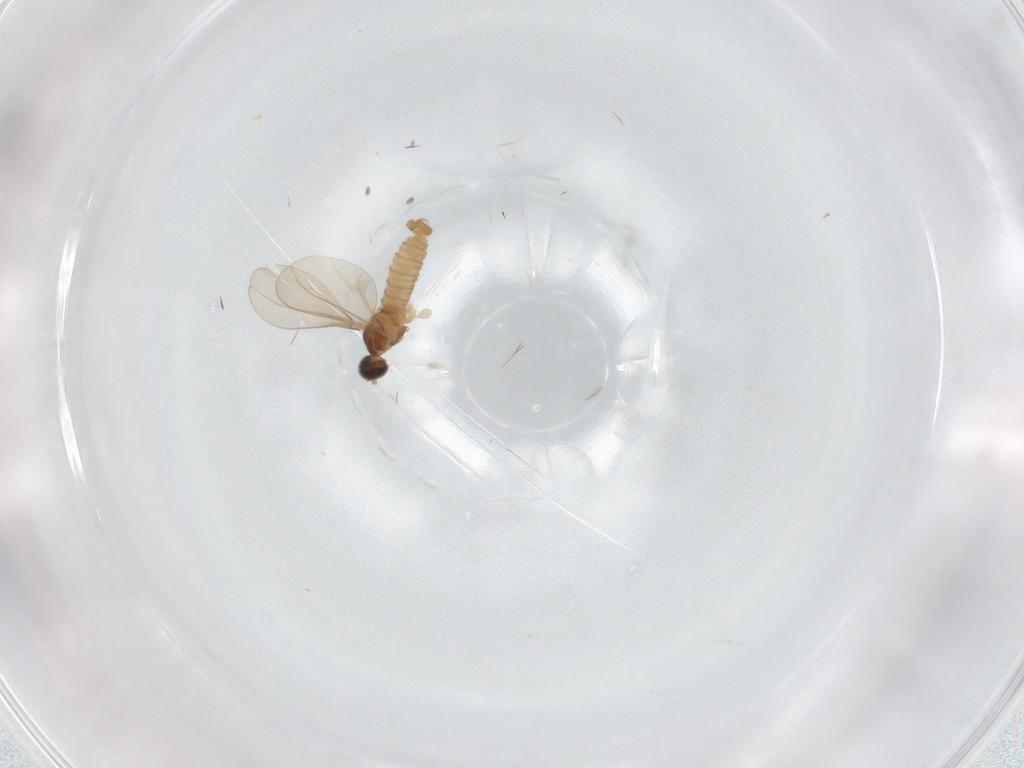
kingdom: Animalia
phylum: Arthropoda
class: Insecta
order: Diptera
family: Cecidomyiidae
